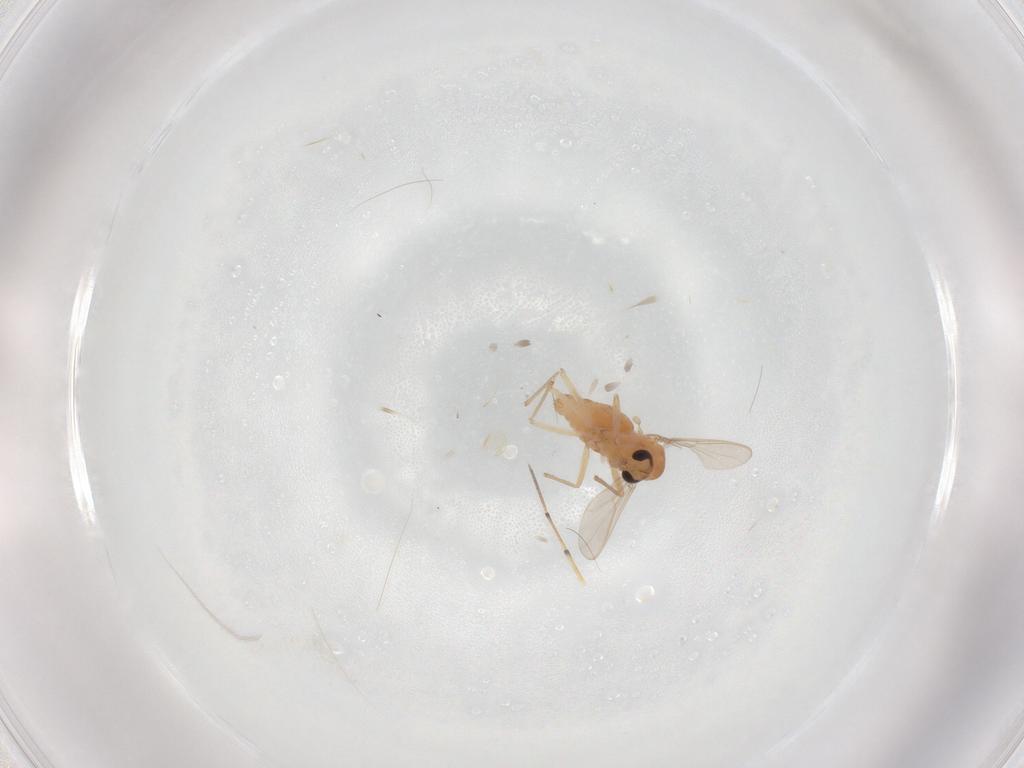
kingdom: Animalia
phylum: Arthropoda
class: Insecta
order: Diptera
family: Chironomidae
